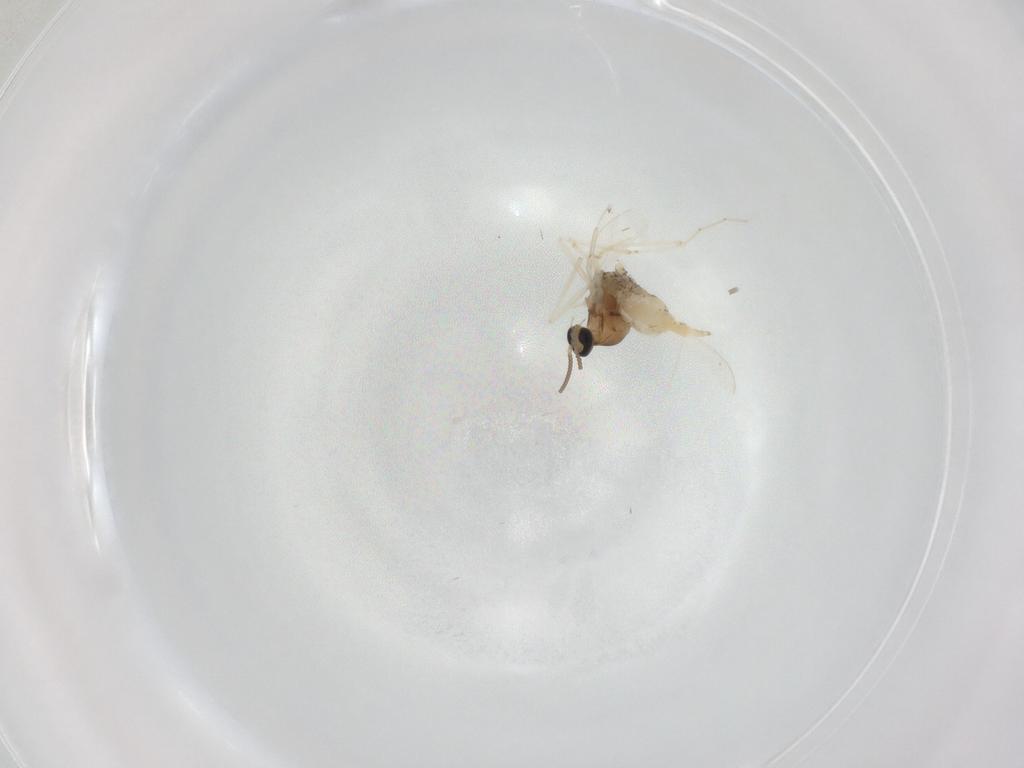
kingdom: Animalia
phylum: Arthropoda
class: Insecta
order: Diptera
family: Cecidomyiidae
